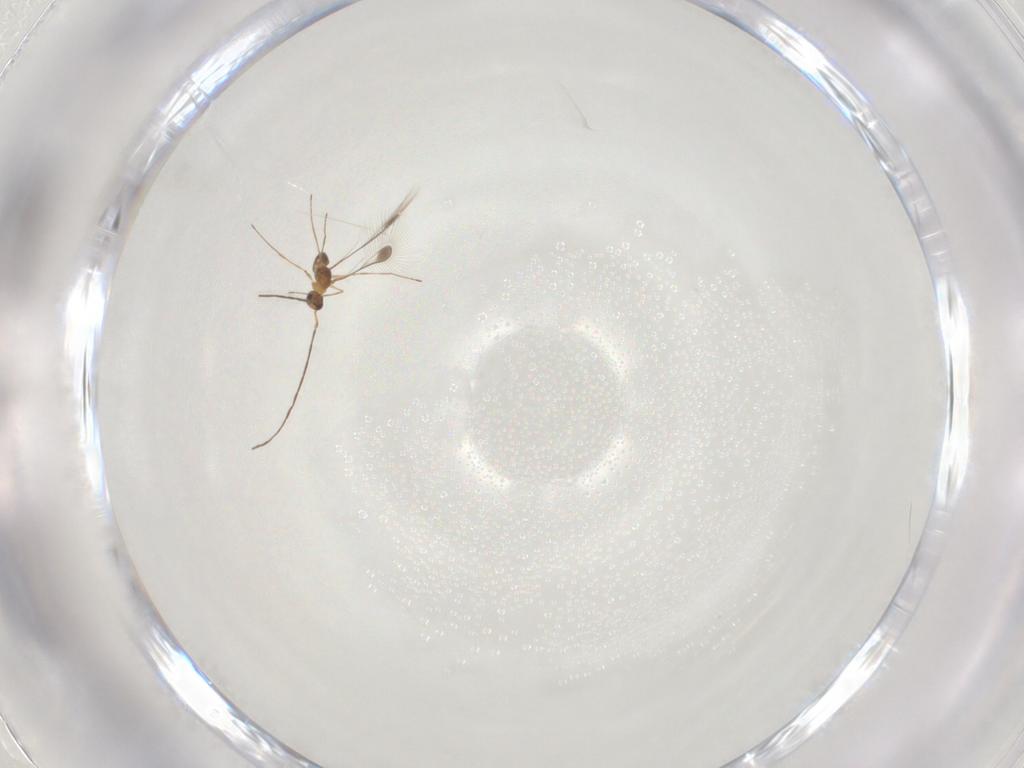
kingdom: Animalia
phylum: Arthropoda
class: Insecta
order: Hymenoptera
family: Mymaridae
